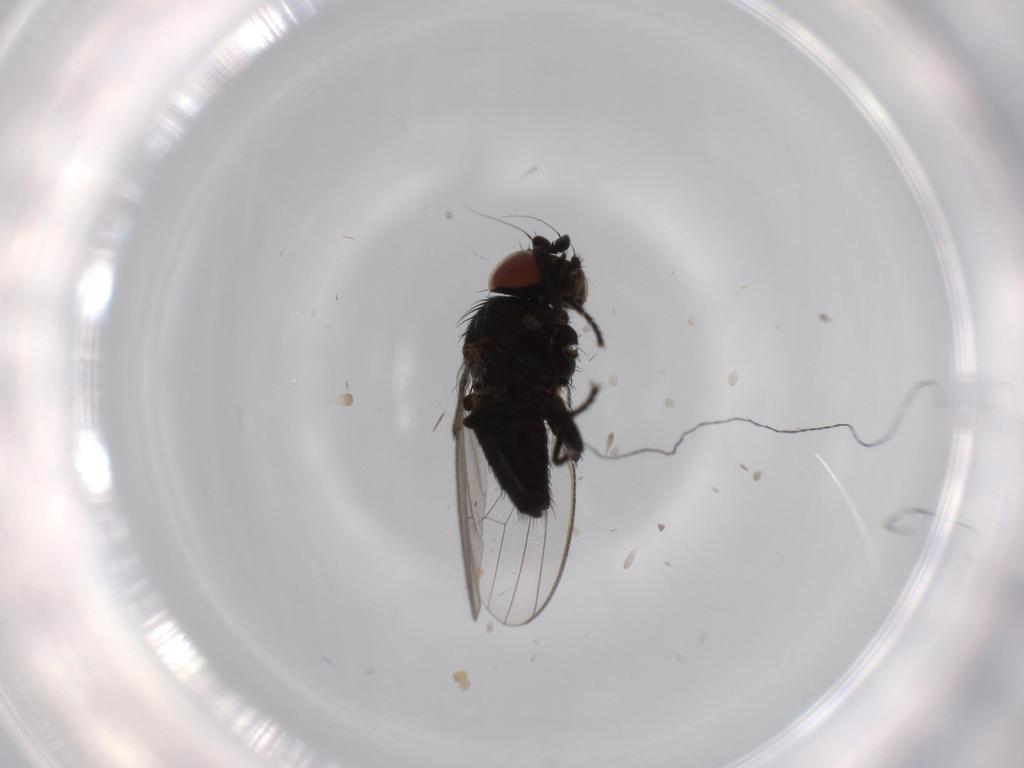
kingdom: Animalia
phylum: Arthropoda
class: Insecta
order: Diptera
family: Milichiidae
